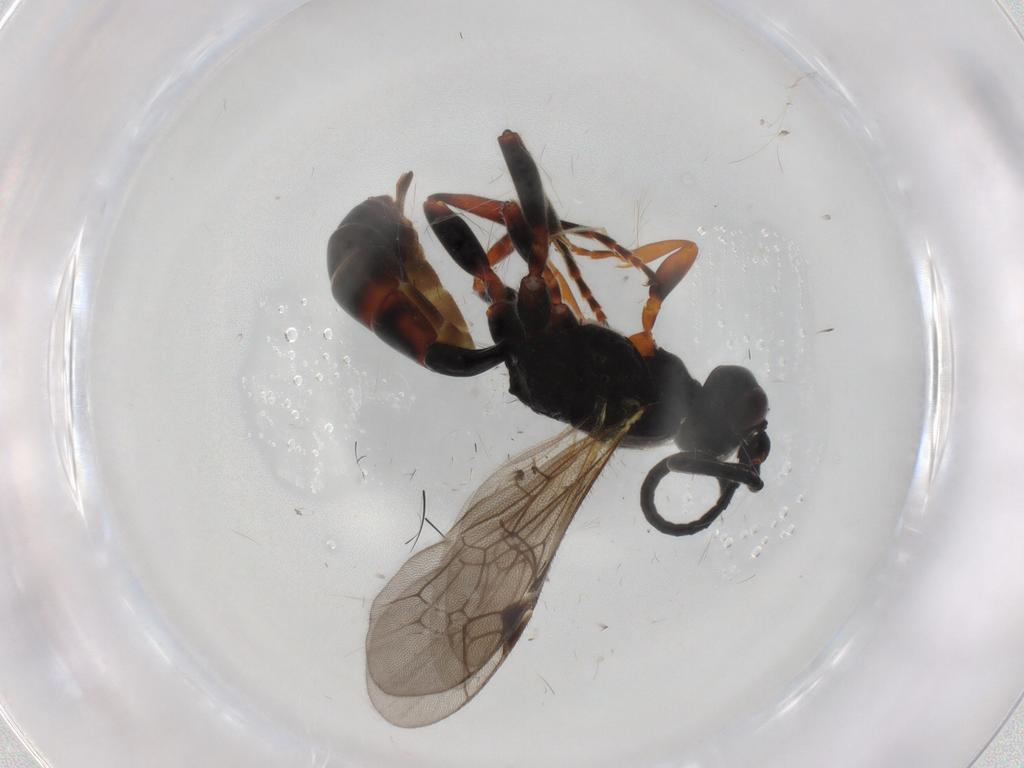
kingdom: Animalia
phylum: Arthropoda
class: Insecta
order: Hymenoptera
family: Ichneumonidae
